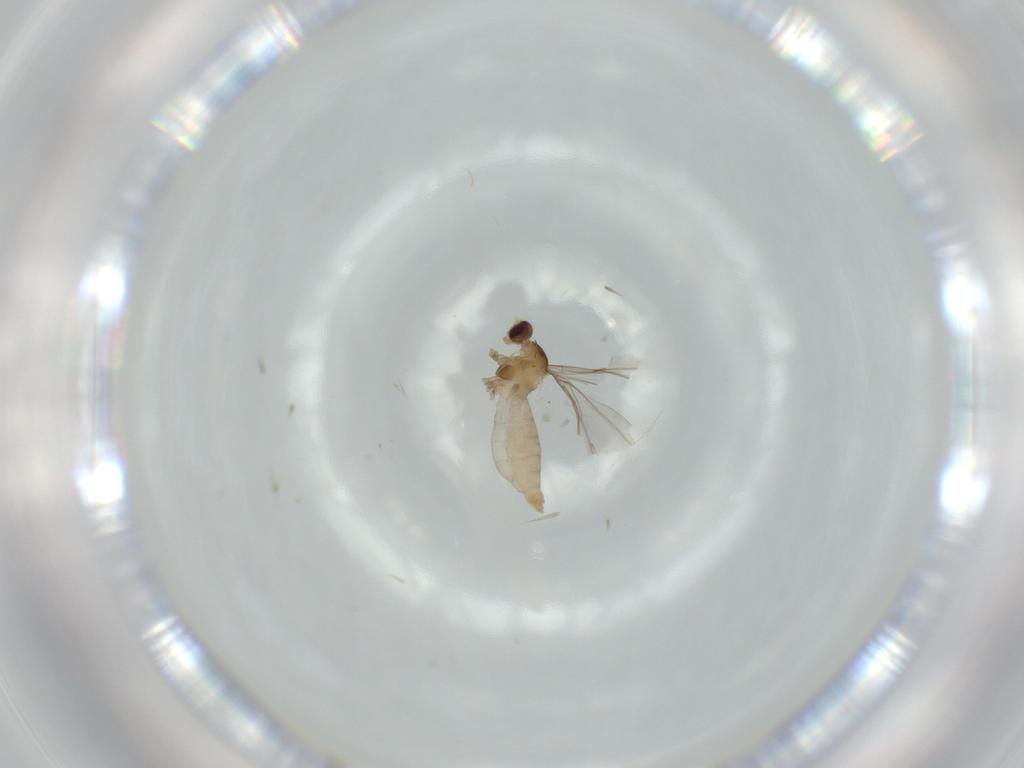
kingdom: Animalia
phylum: Arthropoda
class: Insecta
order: Diptera
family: Cecidomyiidae
